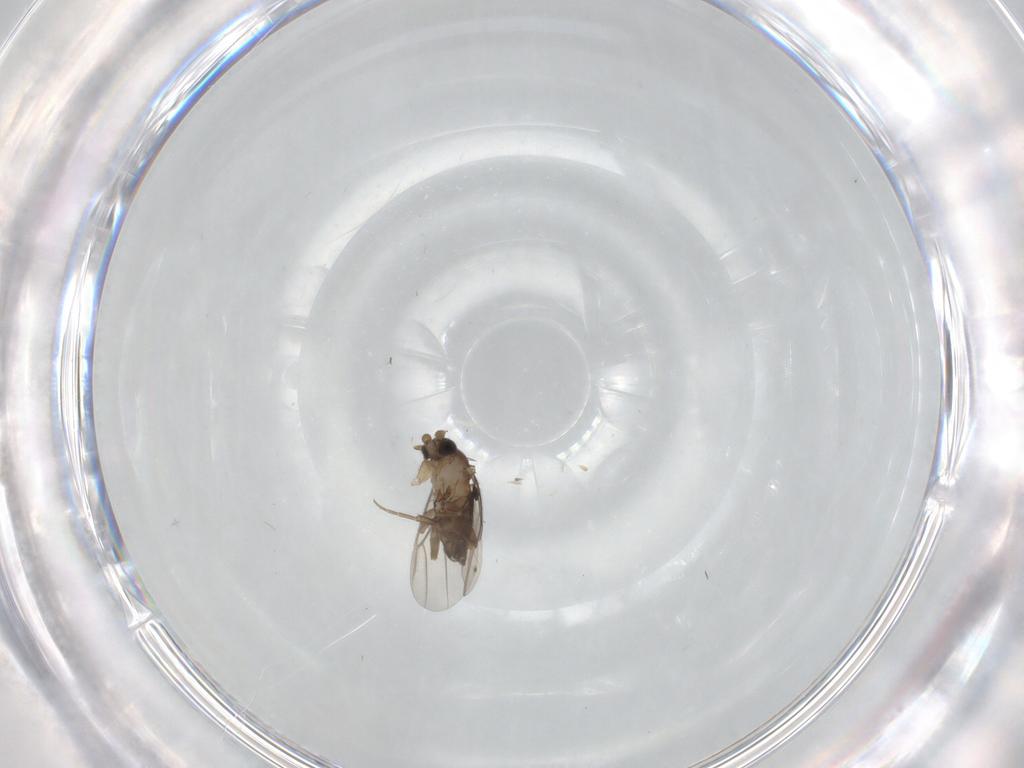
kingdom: Animalia
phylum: Arthropoda
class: Insecta
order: Diptera
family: Phoridae
